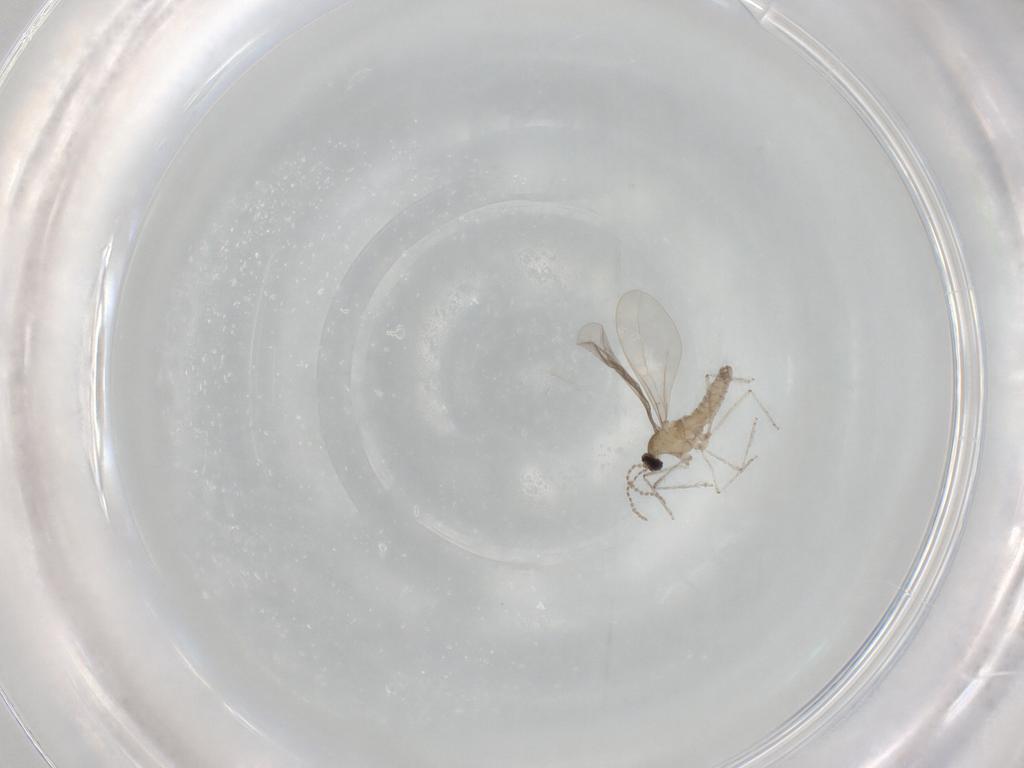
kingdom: Animalia
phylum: Arthropoda
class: Insecta
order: Diptera
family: Cecidomyiidae
